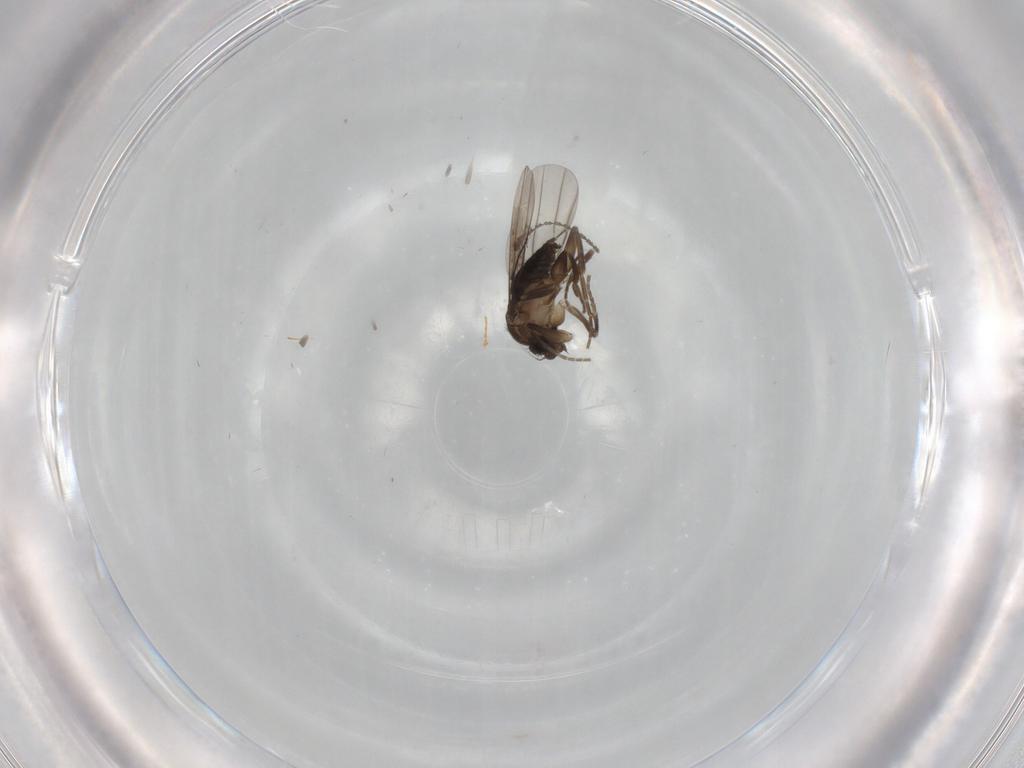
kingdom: Animalia
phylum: Arthropoda
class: Insecta
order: Diptera
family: Phoridae
